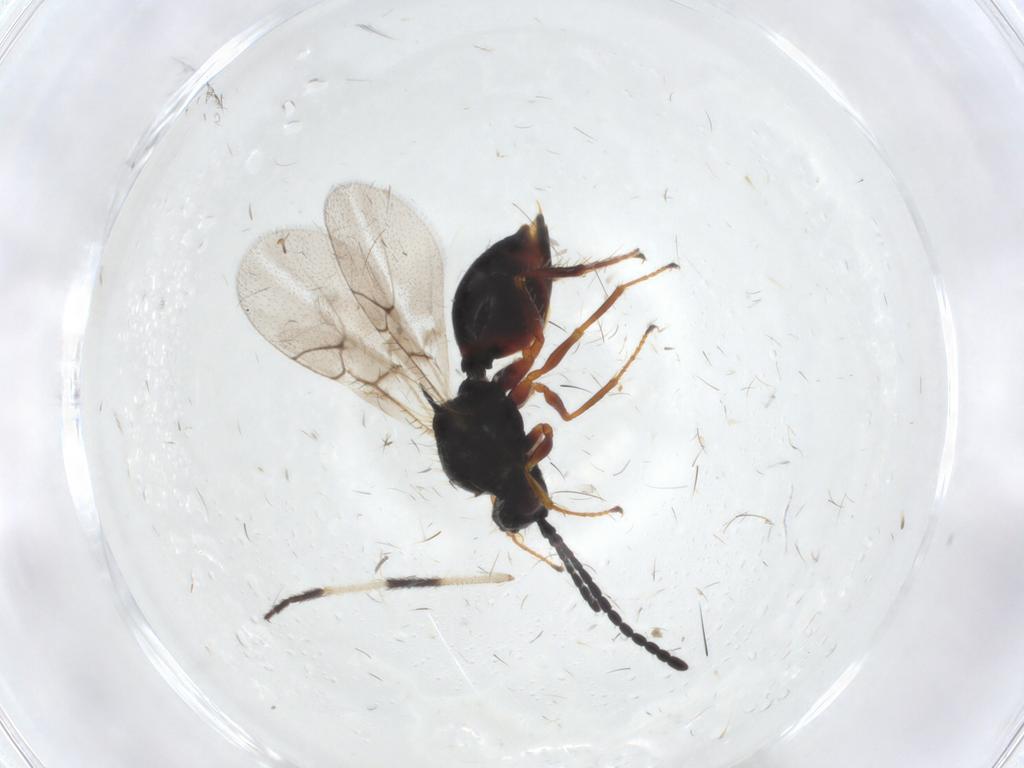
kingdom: Animalia
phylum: Arthropoda
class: Insecta
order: Hymenoptera
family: Figitidae
